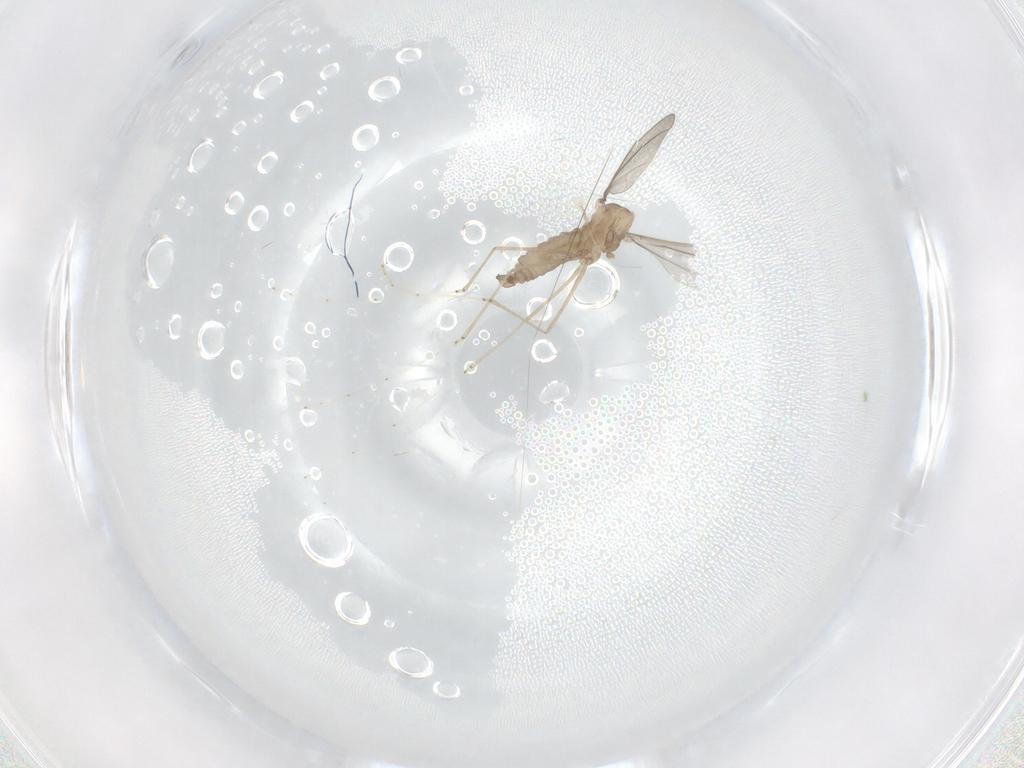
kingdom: Animalia
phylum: Arthropoda
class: Insecta
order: Diptera
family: Cecidomyiidae
